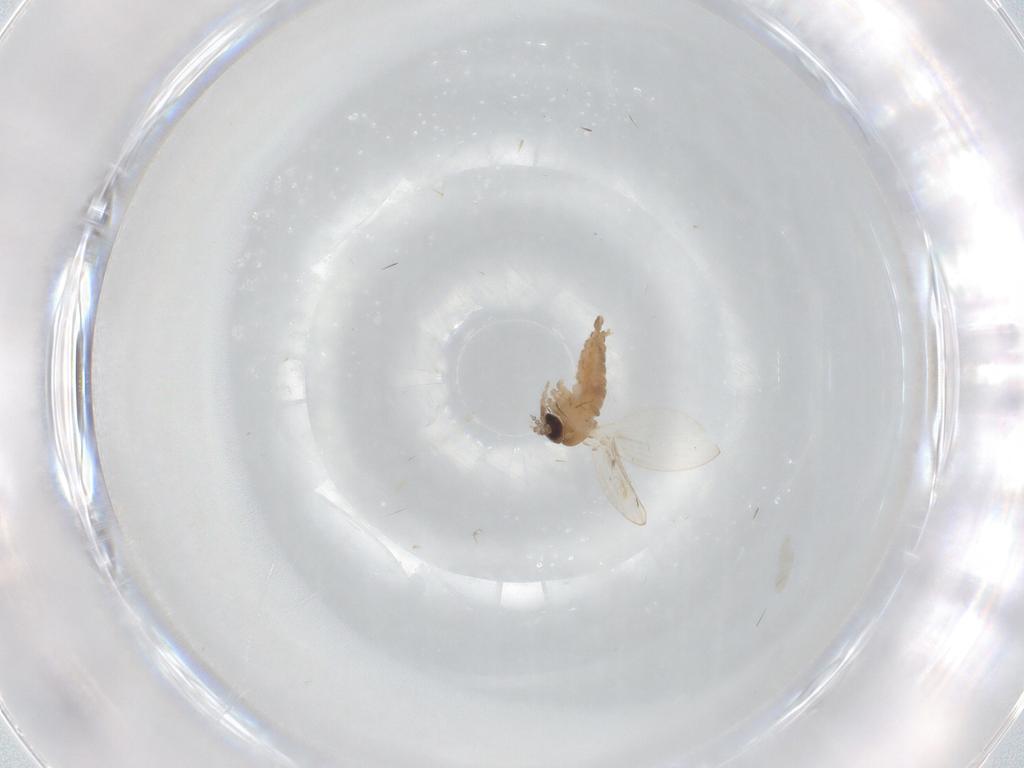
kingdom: Animalia
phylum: Arthropoda
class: Insecta
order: Diptera
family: Psychodidae
